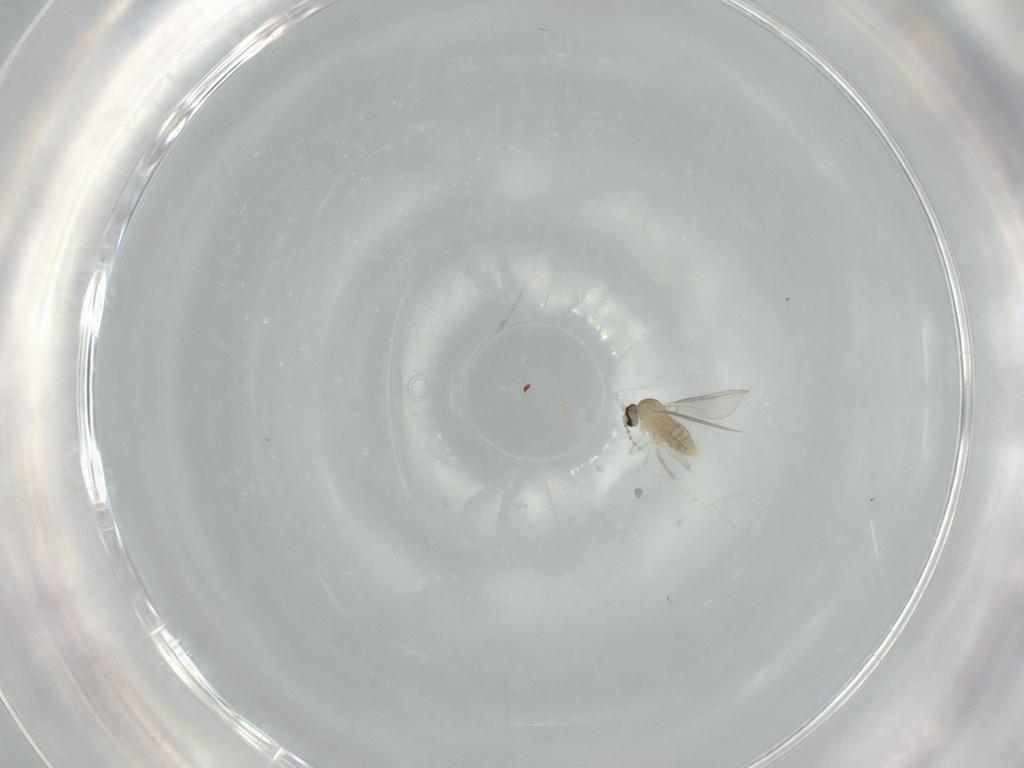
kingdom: Animalia
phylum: Arthropoda
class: Insecta
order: Diptera
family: Cecidomyiidae
